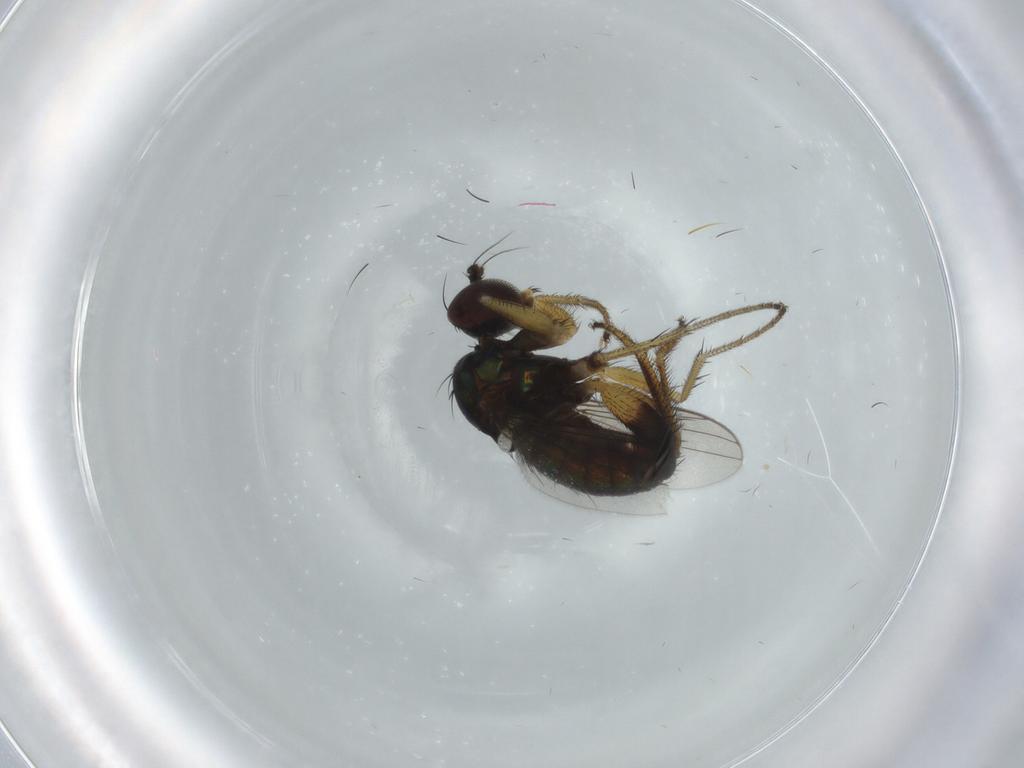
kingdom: Animalia
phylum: Arthropoda
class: Insecta
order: Diptera
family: Dolichopodidae
